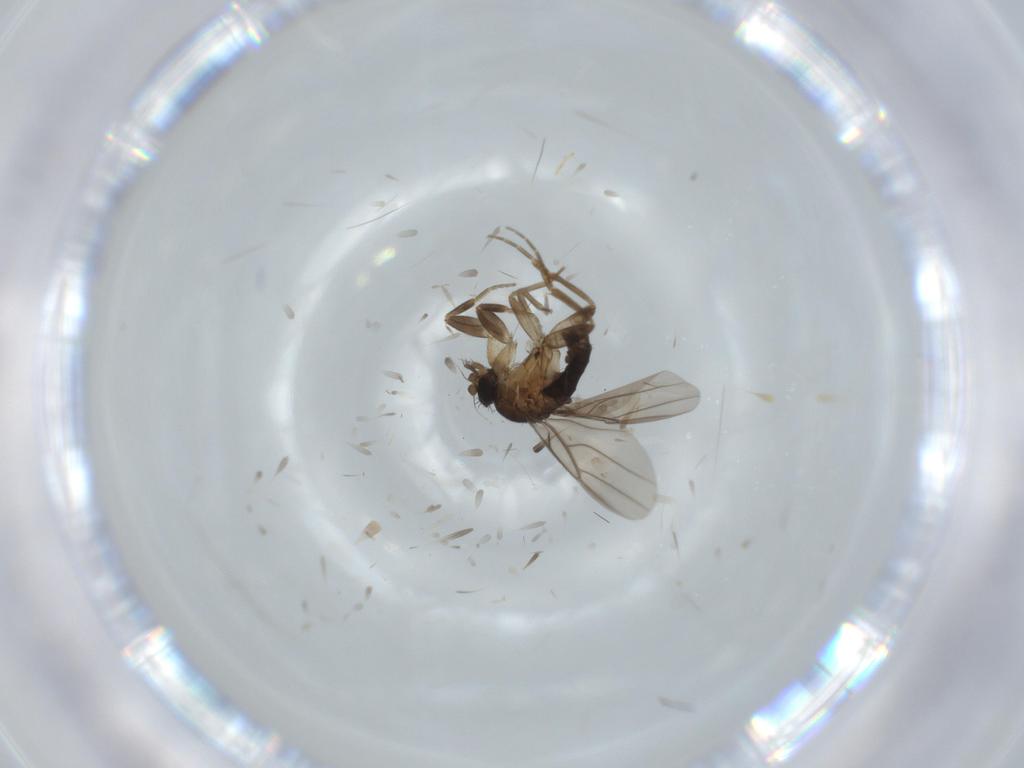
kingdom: Animalia
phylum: Arthropoda
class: Insecta
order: Diptera
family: Cecidomyiidae
